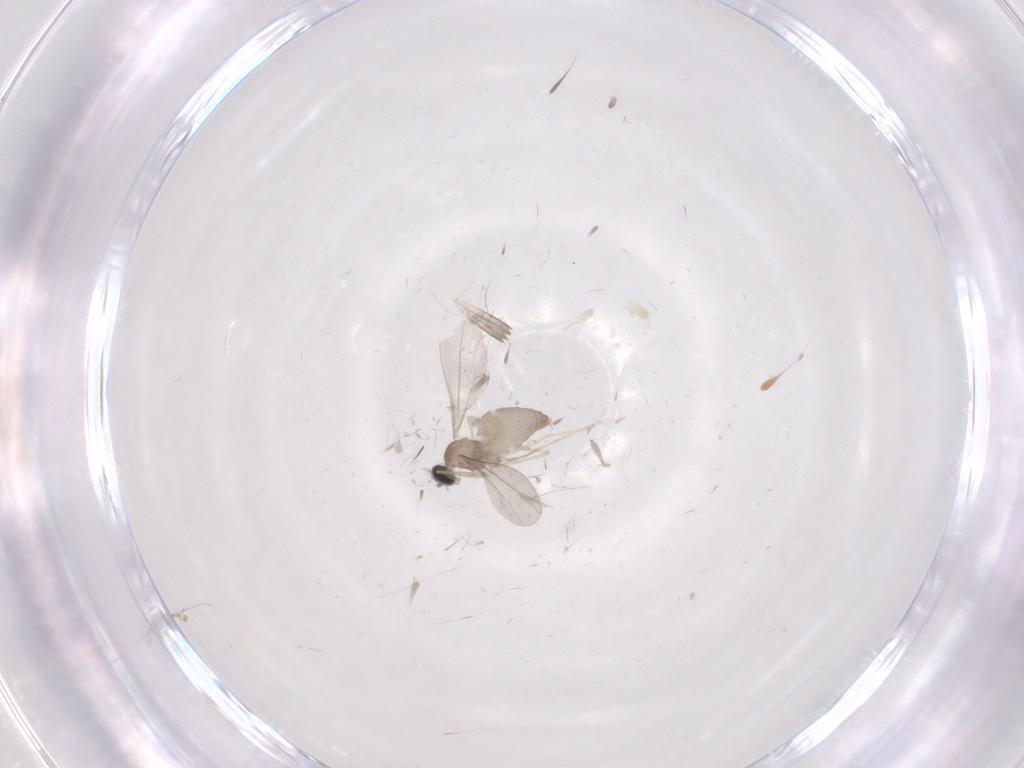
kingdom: Animalia
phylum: Arthropoda
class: Insecta
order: Diptera
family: Cecidomyiidae
